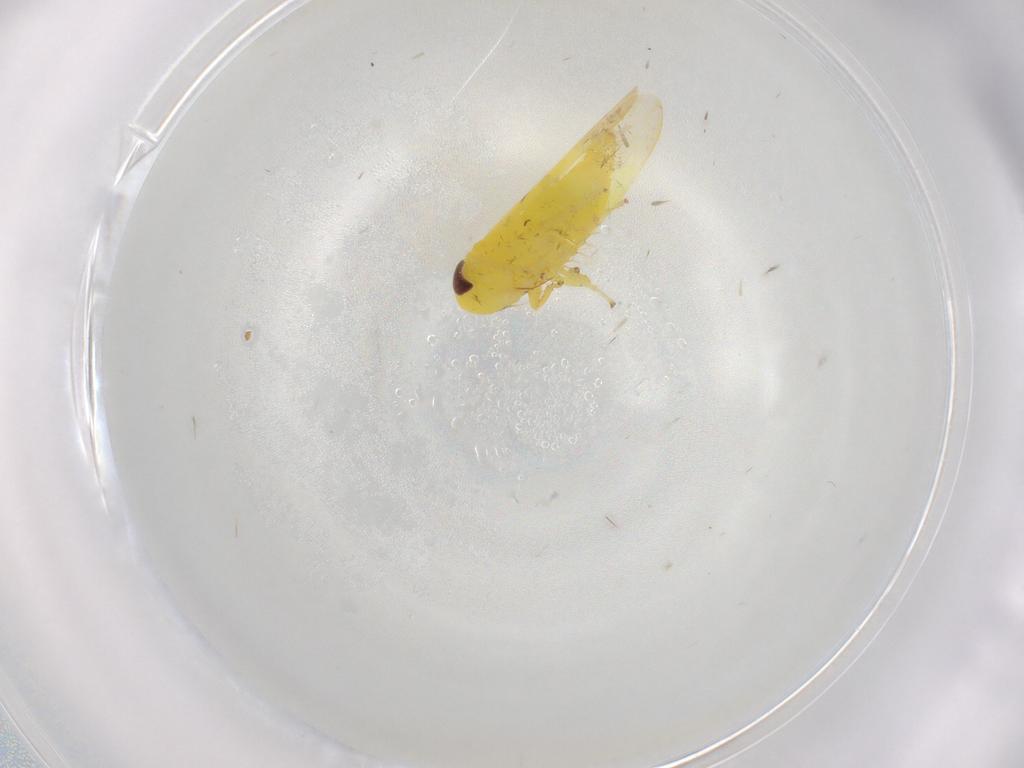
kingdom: Animalia
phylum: Arthropoda
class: Insecta
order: Hemiptera
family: Cicadellidae
